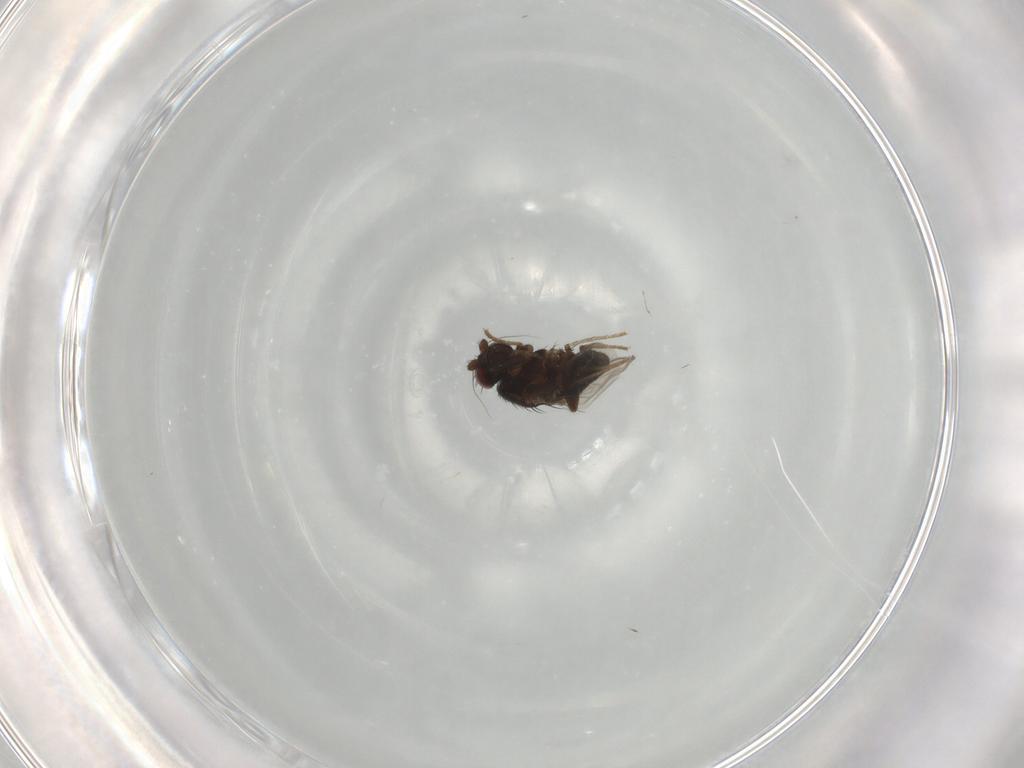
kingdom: Animalia
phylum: Arthropoda
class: Insecta
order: Diptera
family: Sphaeroceridae
